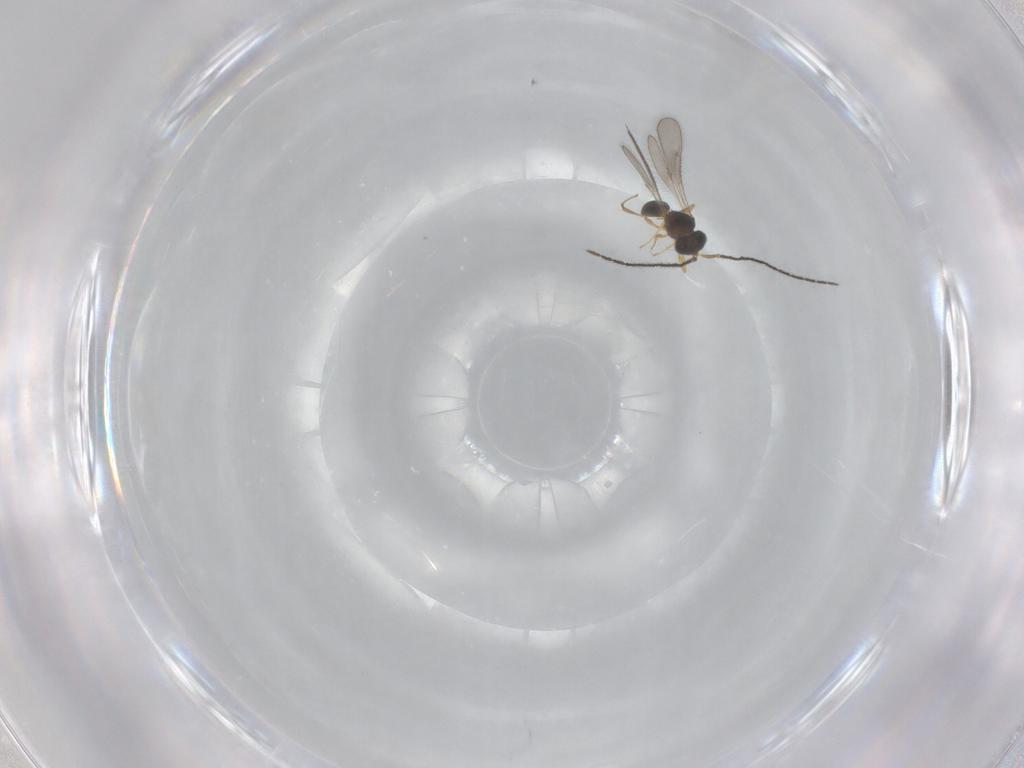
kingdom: Animalia
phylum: Arthropoda
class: Insecta
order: Hymenoptera
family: Scelionidae
